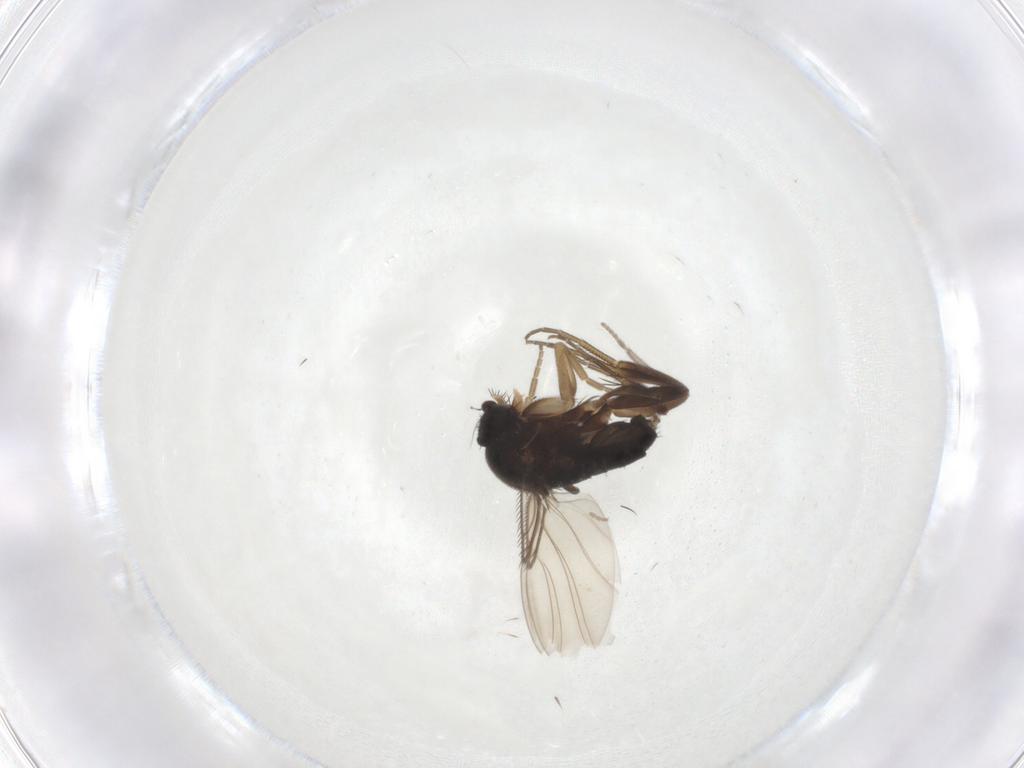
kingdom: Animalia
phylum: Arthropoda
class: Insecta
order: Diptera
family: Phoridae
